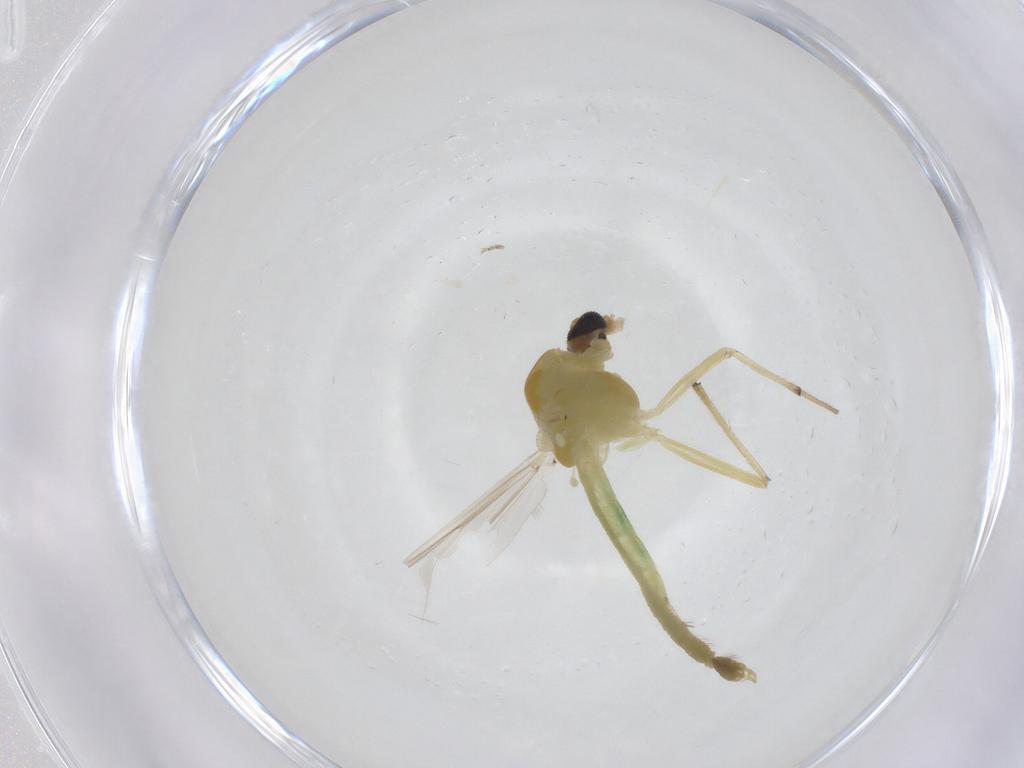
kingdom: Animalia
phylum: Arthropoda
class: Insecta
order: Diptera
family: Chironomidae
